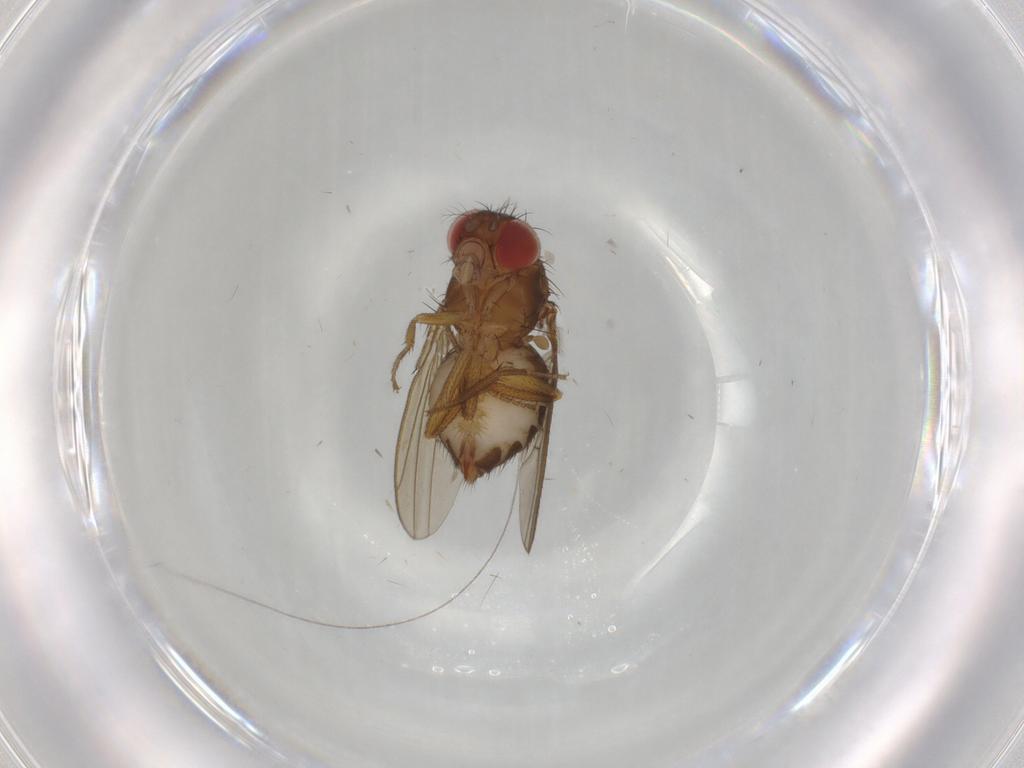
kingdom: Animalia
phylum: Arthropoda
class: Insecta
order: Diptera
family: Drosophilidae
